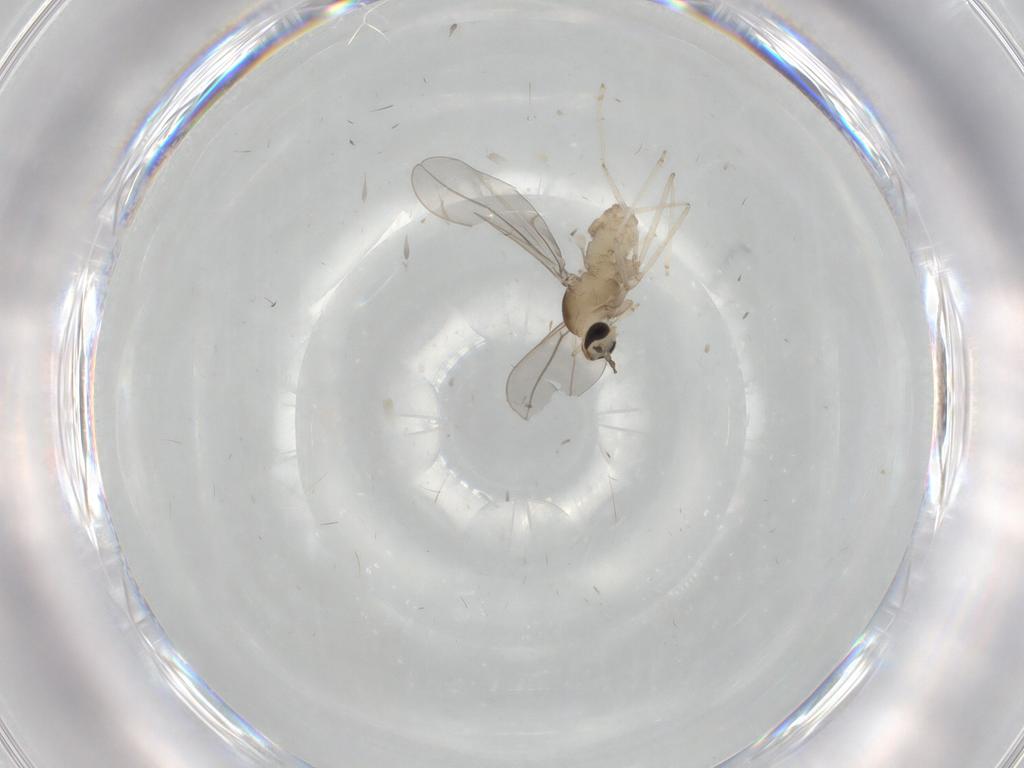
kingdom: Animalia
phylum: Arthropoda
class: Insecta
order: Diptera
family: Cecidomyiidae
